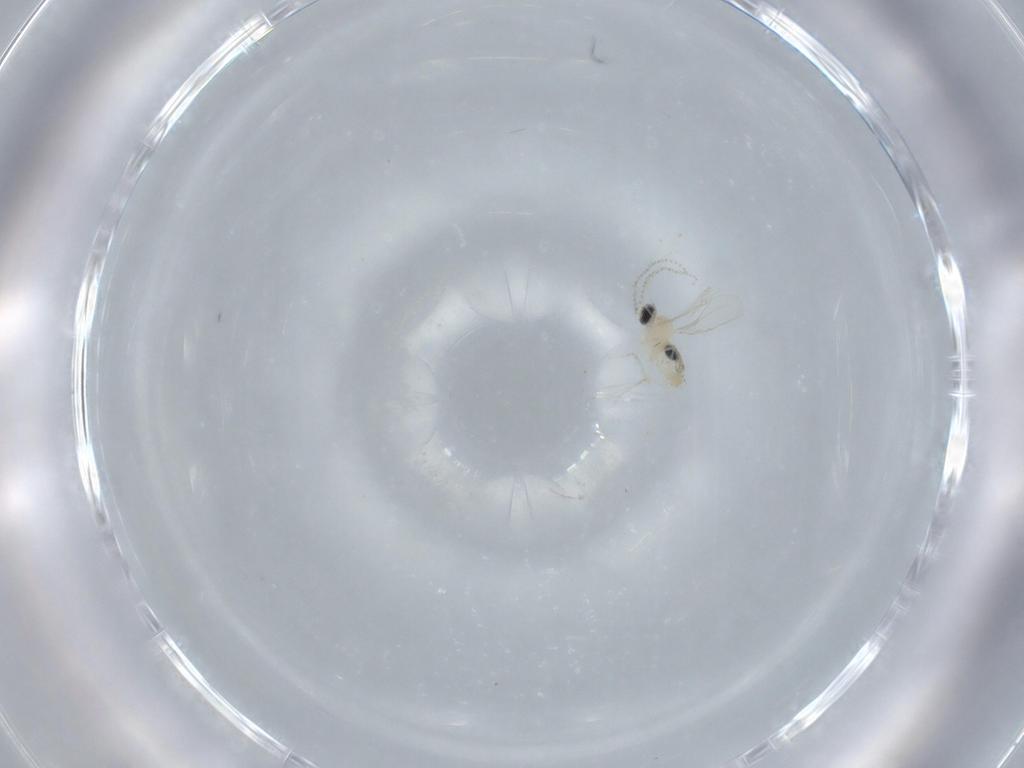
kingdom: Animalia
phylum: Arthropoda
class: Insecta
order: Diptera
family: Cecidomyiidae
